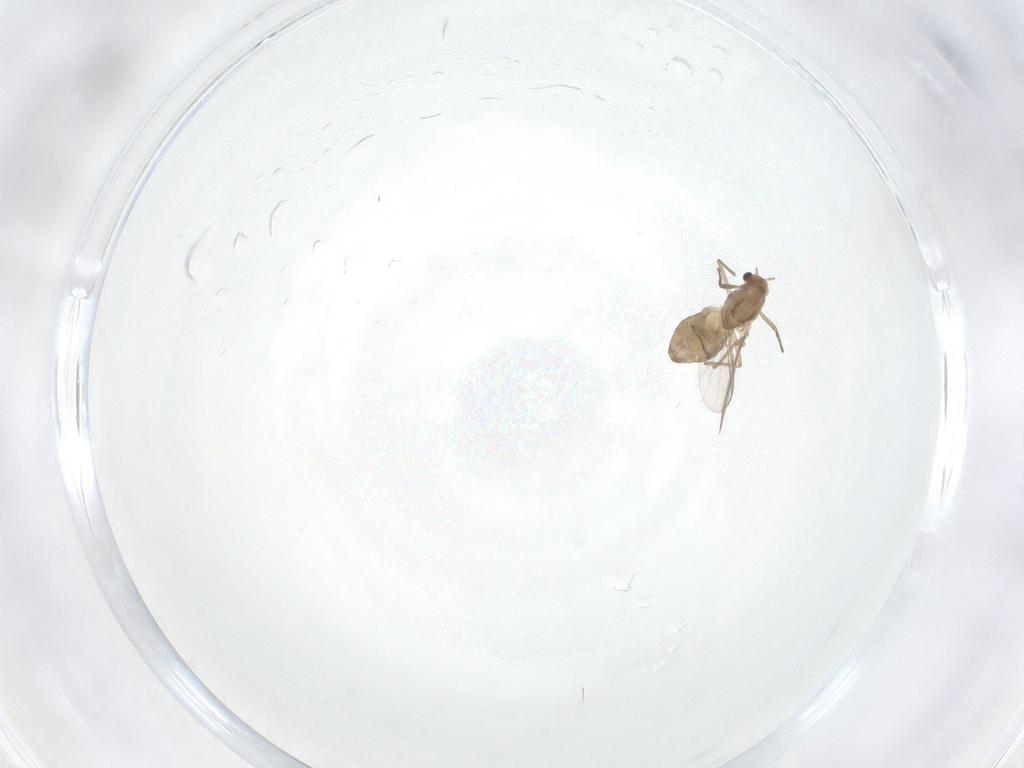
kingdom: Animalia
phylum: Arthropoda
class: Insecta
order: Diptera
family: Chironomidae
